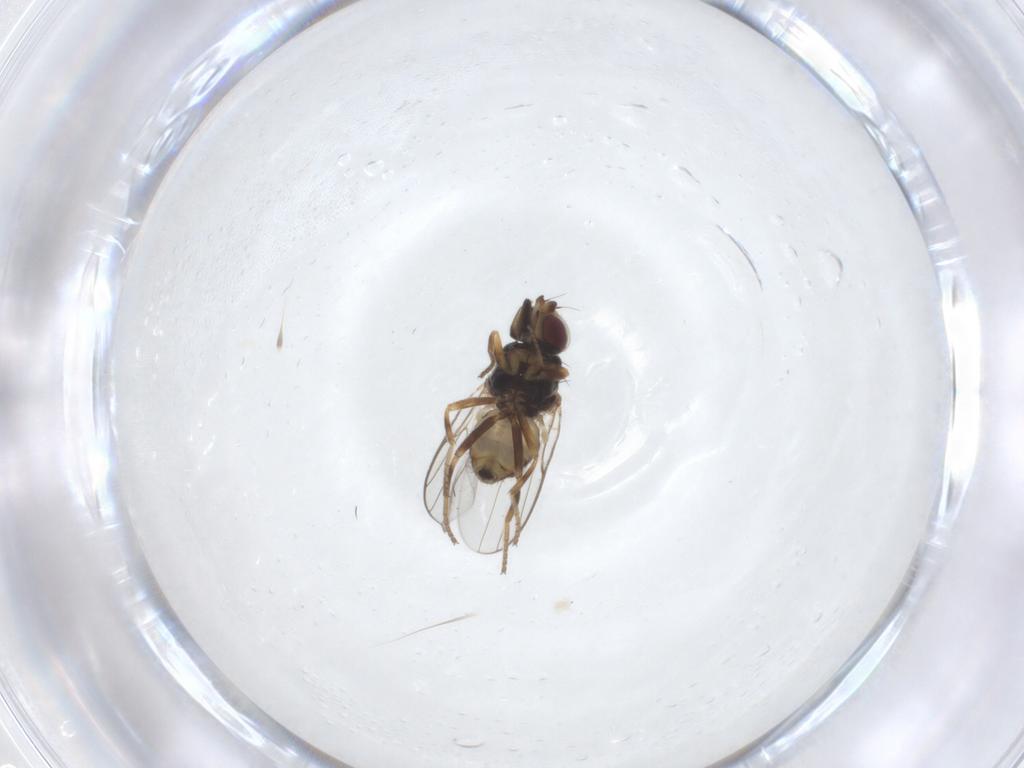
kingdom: Animalia
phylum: Arthropoda
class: Insecta
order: Diptera
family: Chloropidae
